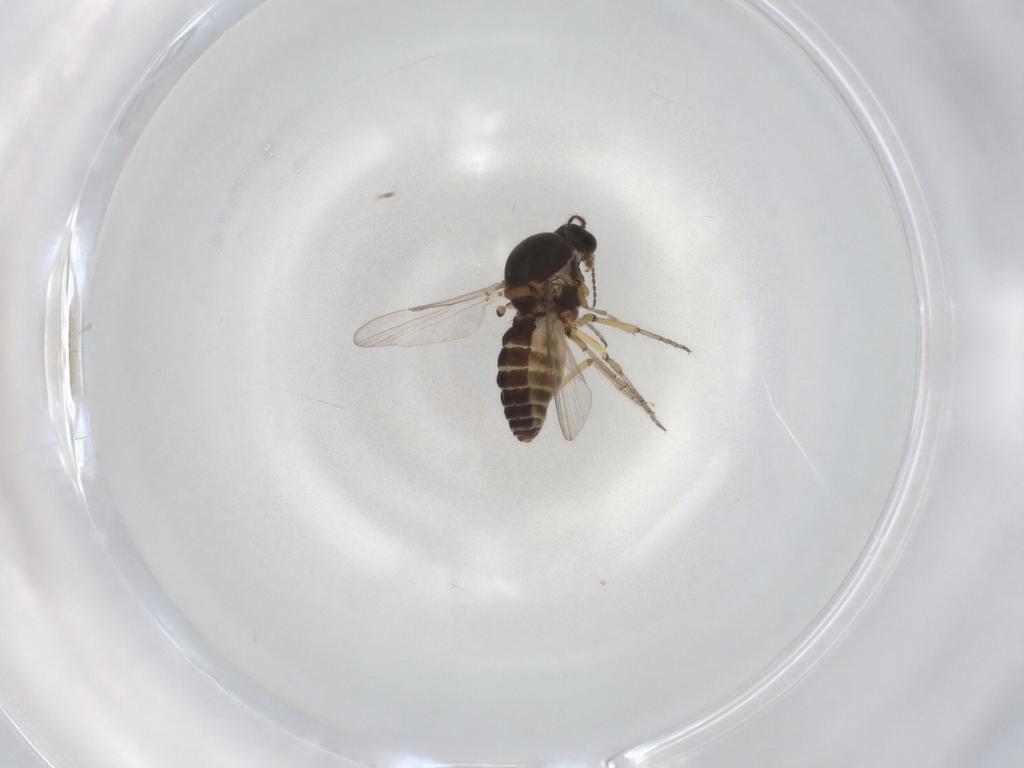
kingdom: Animalia
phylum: Arthropoda
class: Insecta
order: Diptera
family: Ceratopogonidae
